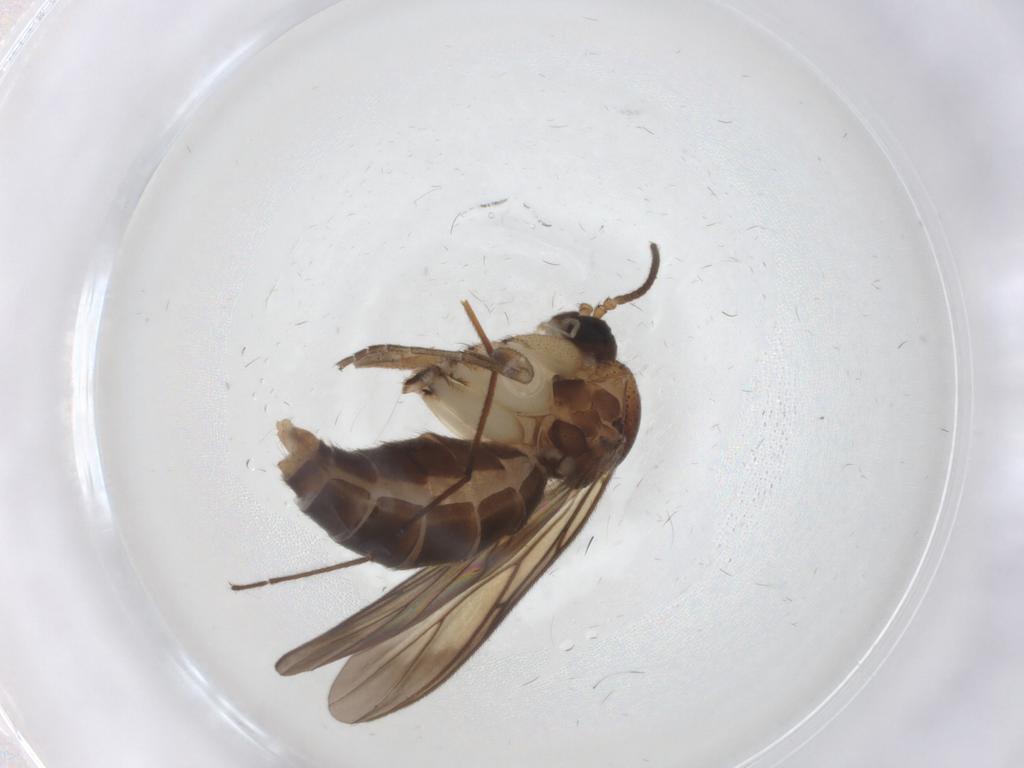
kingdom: Animalia
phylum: Arthropoda
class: Insecta
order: Diptera
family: Mycetophilidae
